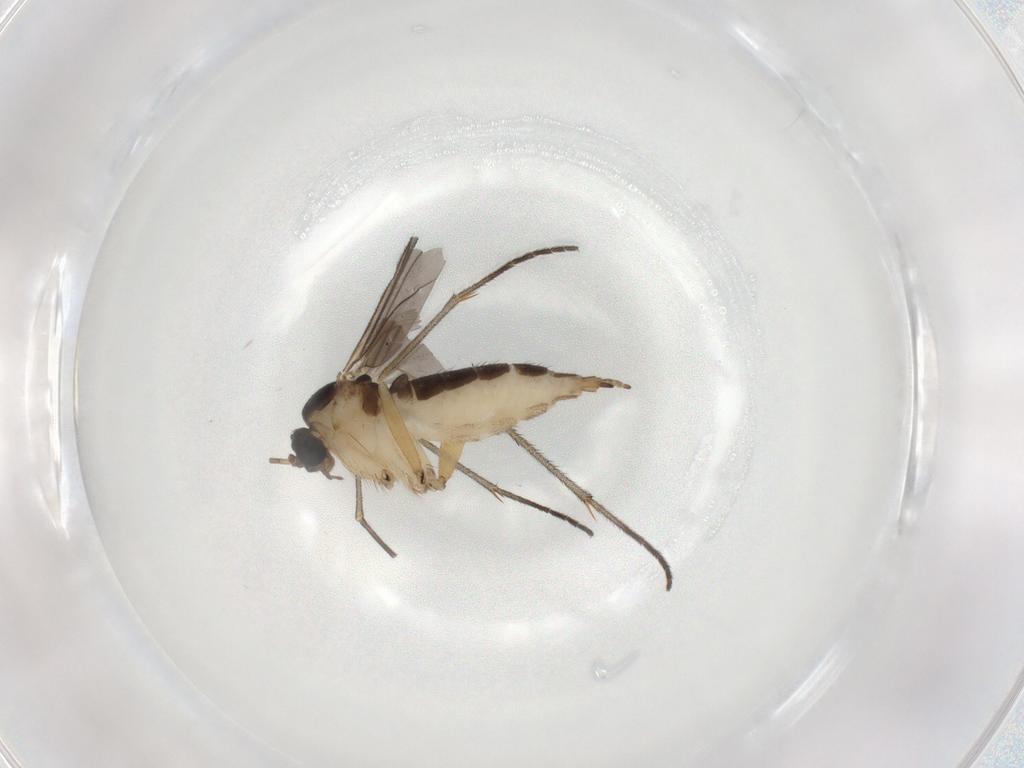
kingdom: Animalia
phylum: Arthropoda
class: Insecta
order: Diptera
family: Sciaridae
